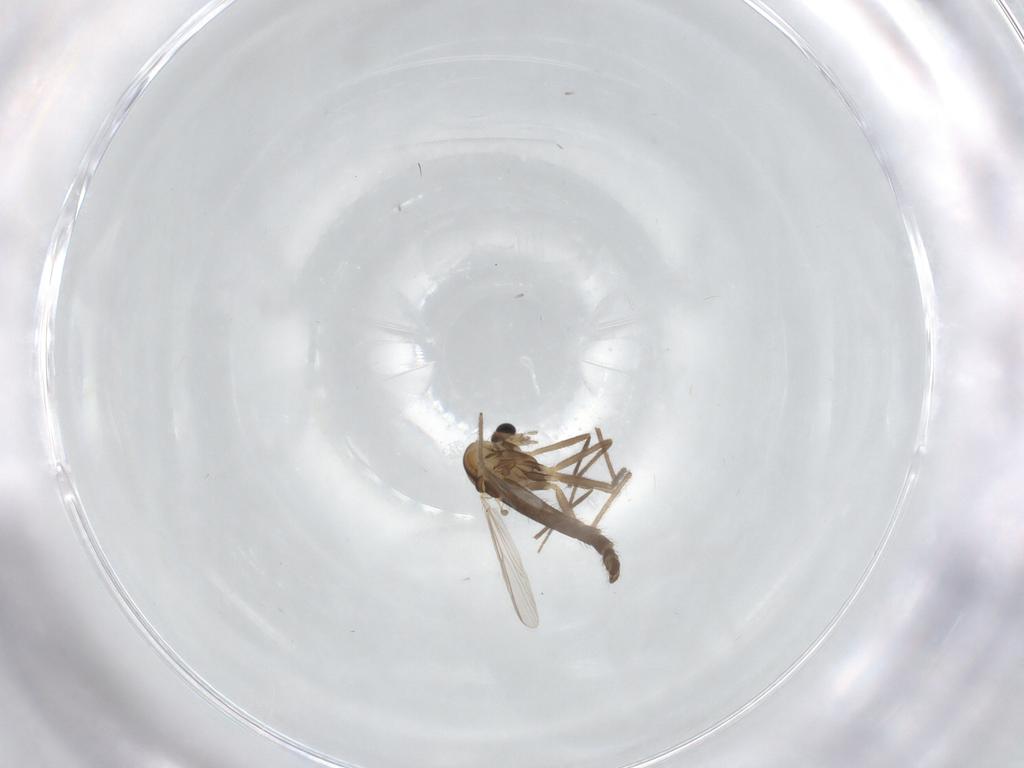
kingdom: Animalia
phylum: Arthropoda
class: Insecta
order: Diptera
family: Chironomidae
